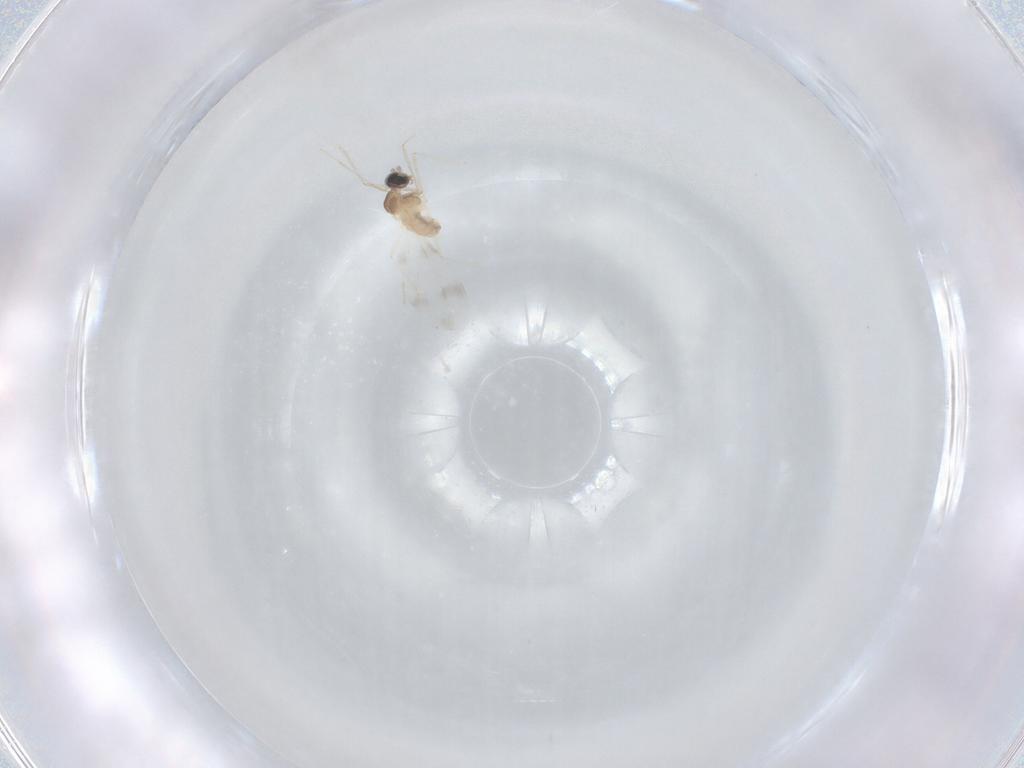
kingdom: Animalia
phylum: Arthropoda
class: Insecta
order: Diptera
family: Cecidomyiidae
